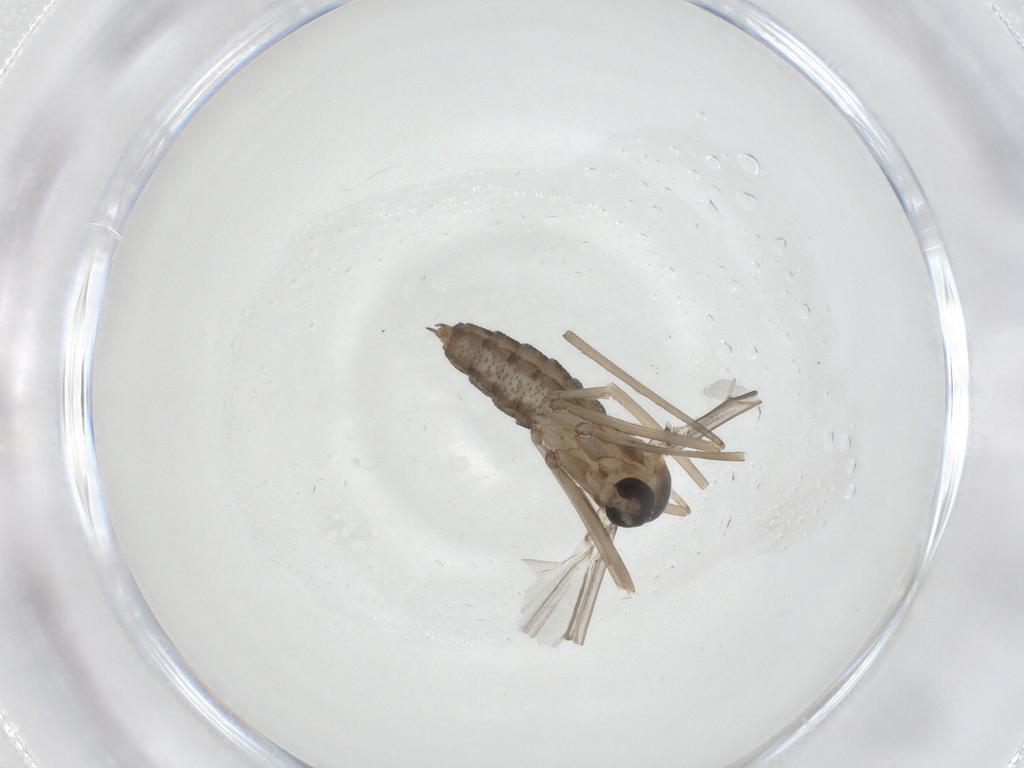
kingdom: Animalia
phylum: Arthropoda
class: Insecta
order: Diptera
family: Cecidomyiidae
